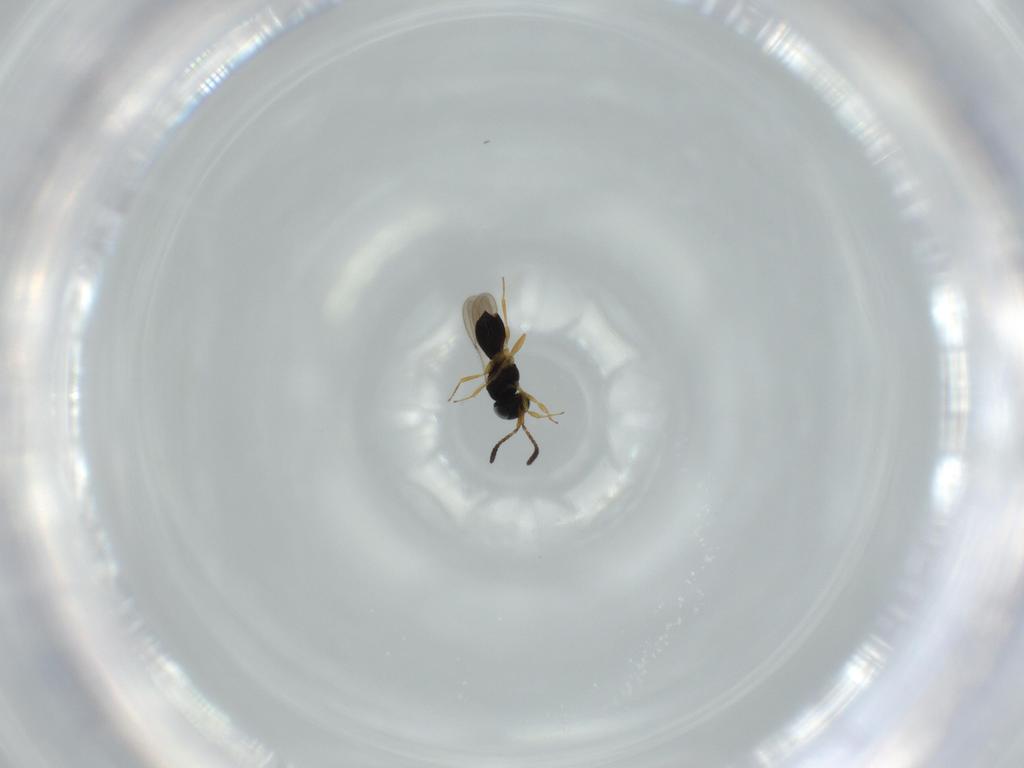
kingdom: Animalia
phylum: Arthropoda
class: Insecta
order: Hymenoptera
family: Scelionidae
